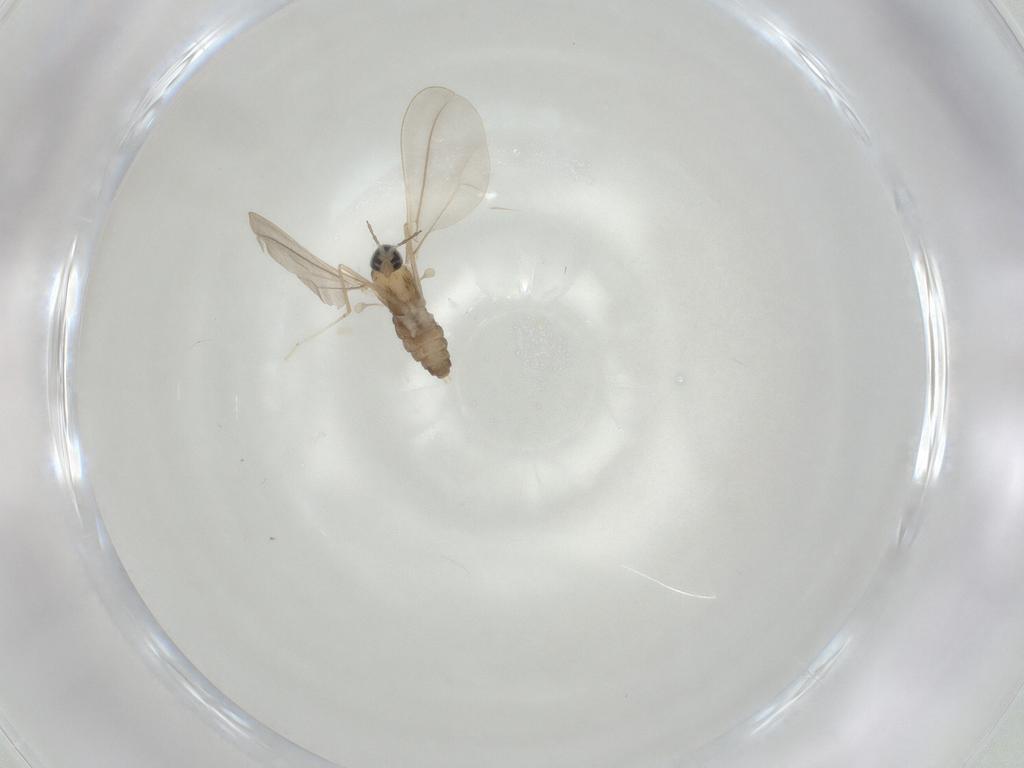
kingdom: Animalia
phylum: Arthropoda
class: Insecta
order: Diptera
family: Cecidomyiidae
